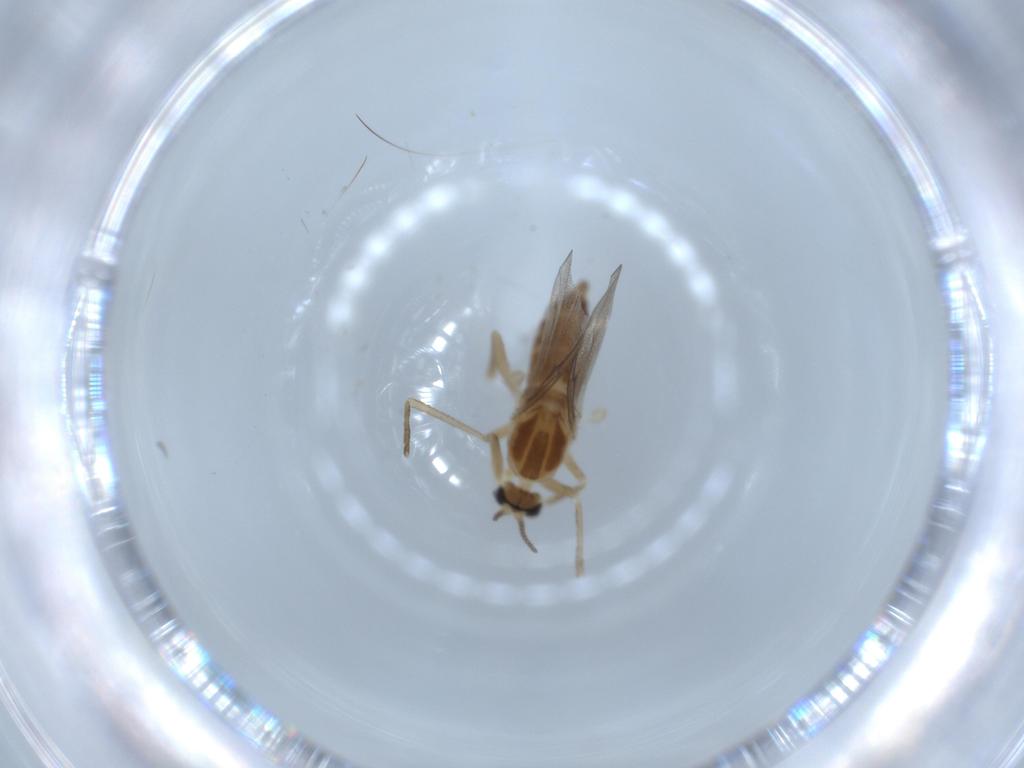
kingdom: Animalia
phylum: Arthropoda
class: Insecta
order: Diptera
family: Cecidomyiidae
